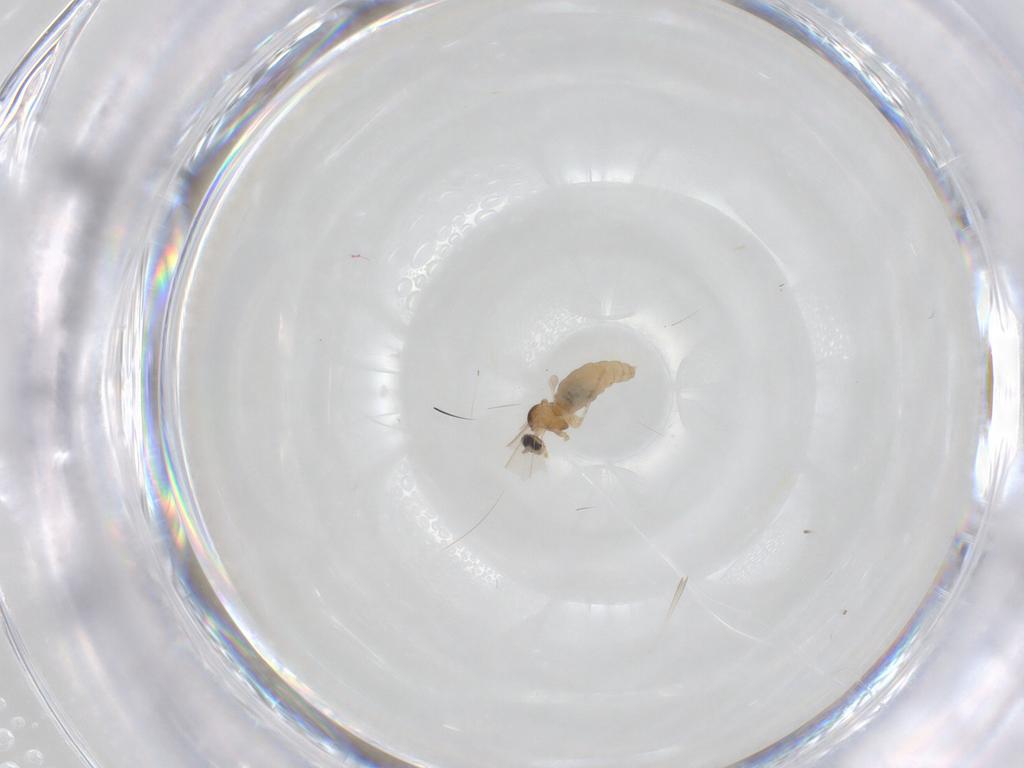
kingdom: Animalia
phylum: Arthropoda
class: Insecta
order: Diptera
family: Cecidomyiidae
